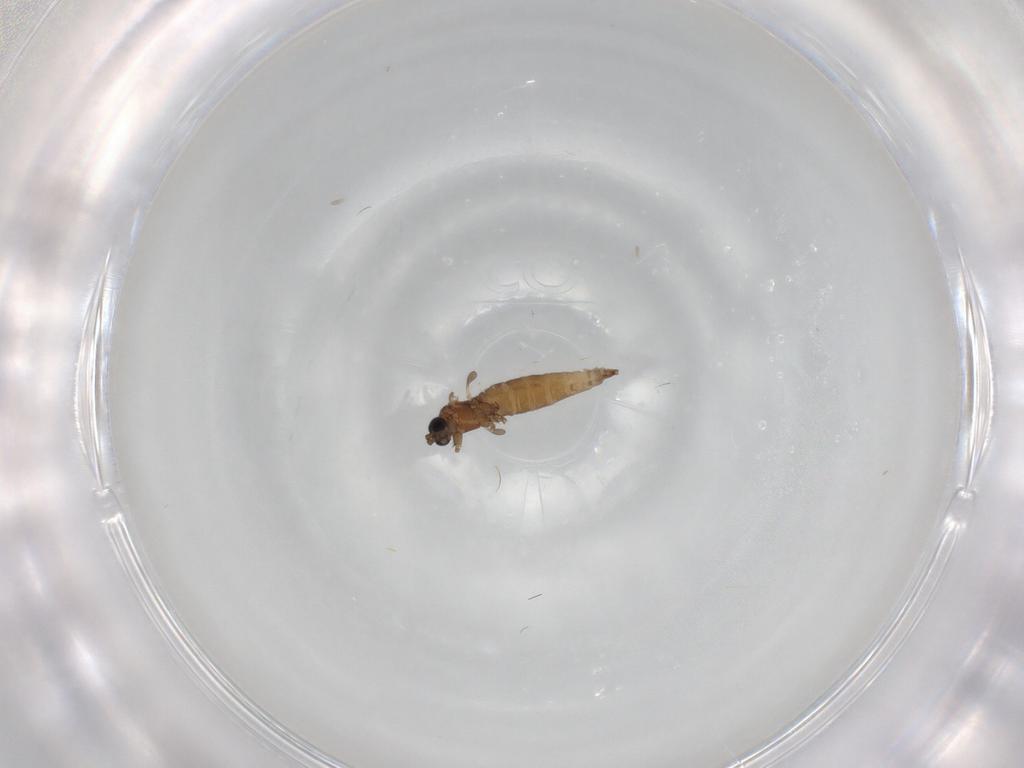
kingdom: Animalia
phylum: Arthropoda
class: Insecta
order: Diptera
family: Sciaridae
